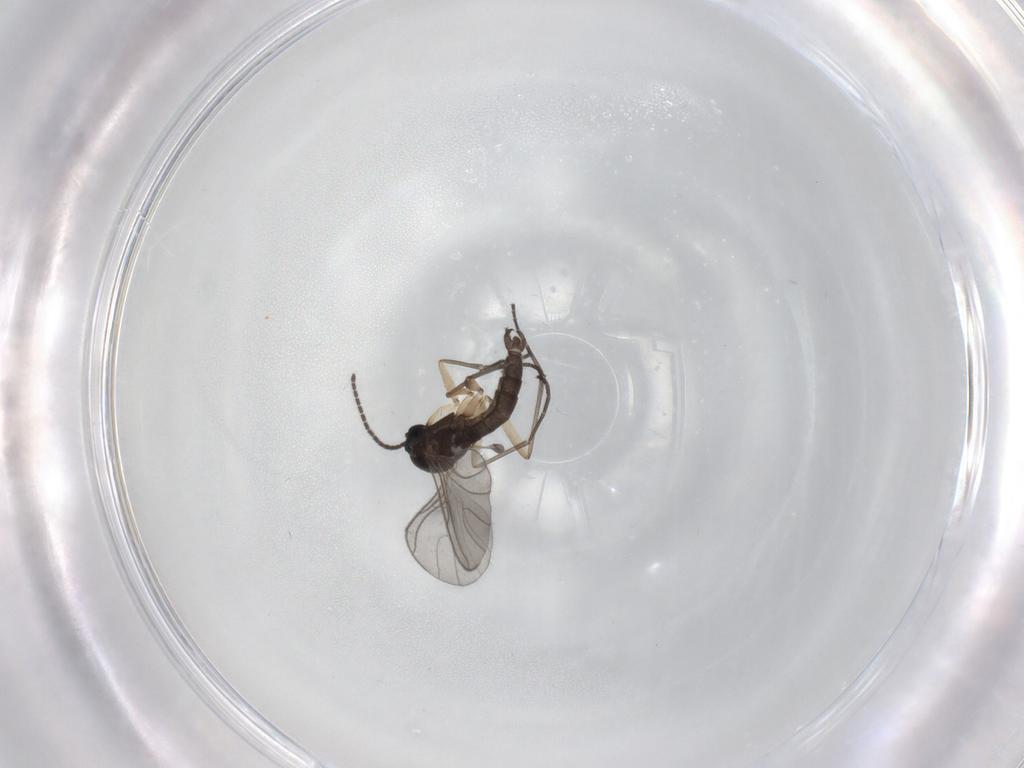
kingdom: Animalia
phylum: Arthropoda
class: Insecta
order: Diptera
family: Sciaridae
